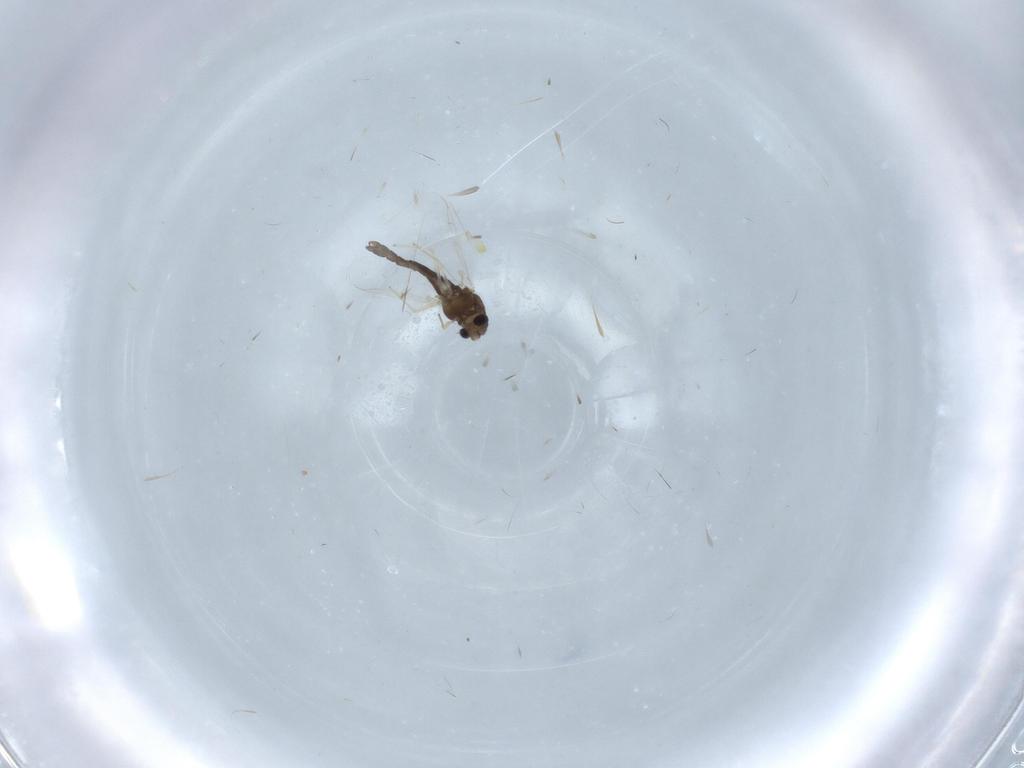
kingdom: Animalia
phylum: Arthropoda
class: Insecta
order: Diptera
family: Chironomidae
